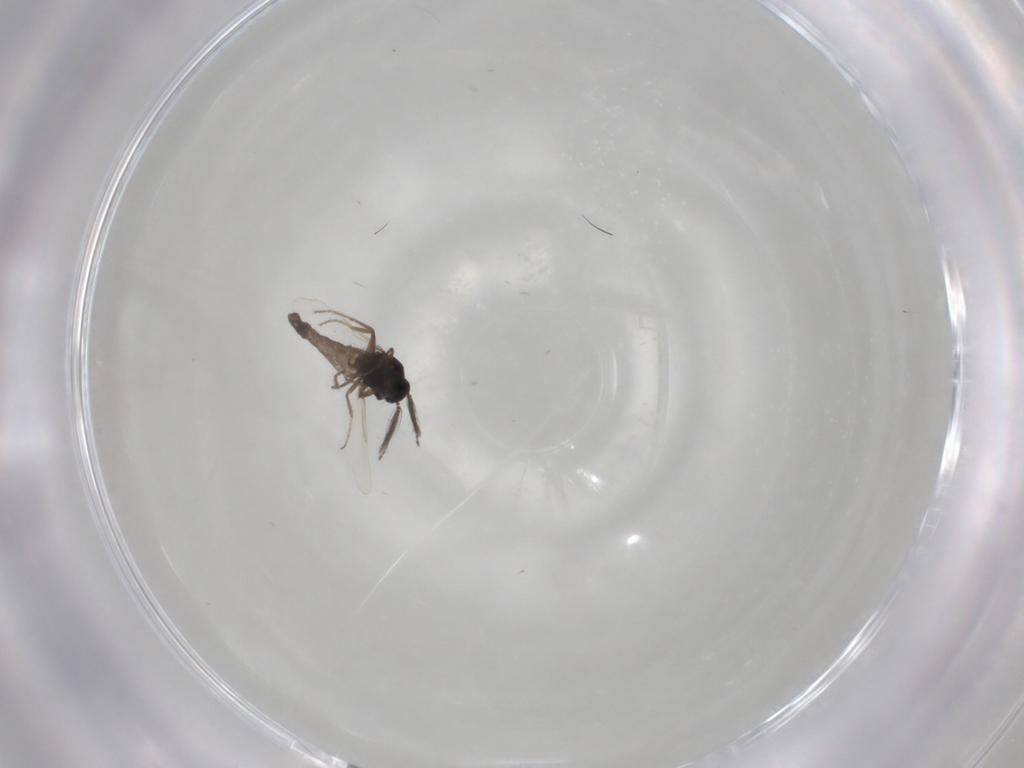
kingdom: Animalia
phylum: Arthropoda
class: Insecta
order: Diptera
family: Ceratopogonidae
